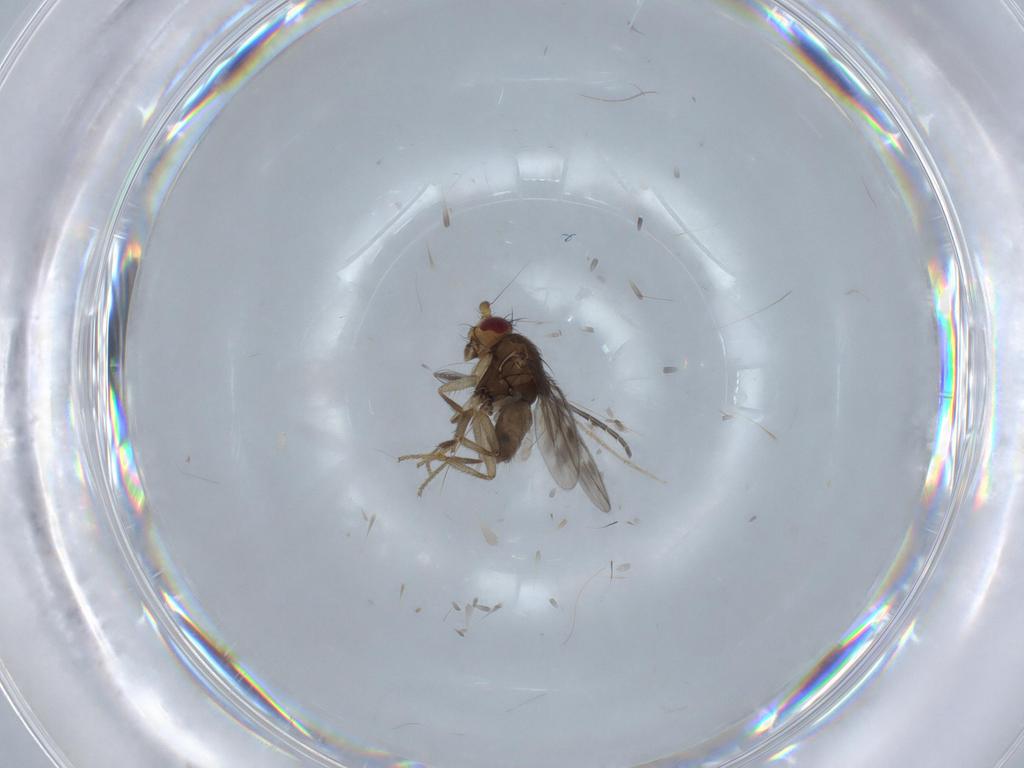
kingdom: Animalia
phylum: Arthropoda
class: Insecta
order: Diptera
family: Sphaeroceridae
